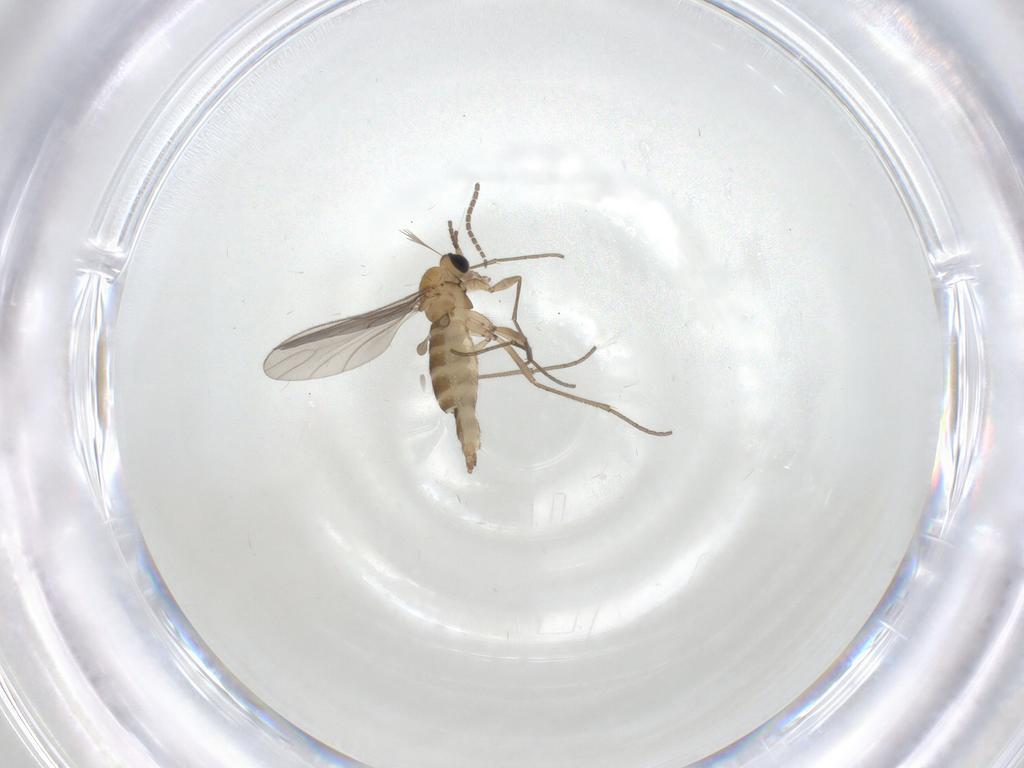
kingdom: Animalia
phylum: Arthropoda
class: Insecta
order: Diptera
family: Sciaridae
